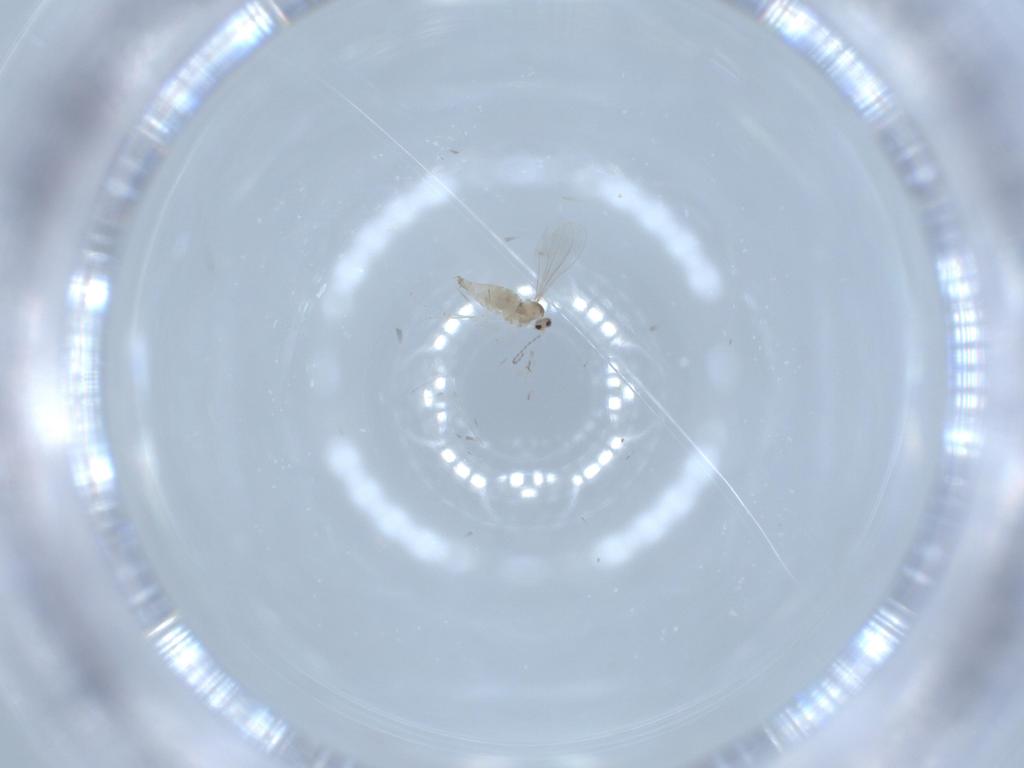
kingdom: Animalia
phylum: Arthropoda
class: Insecta
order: Diptera
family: Cecidomyiidae
